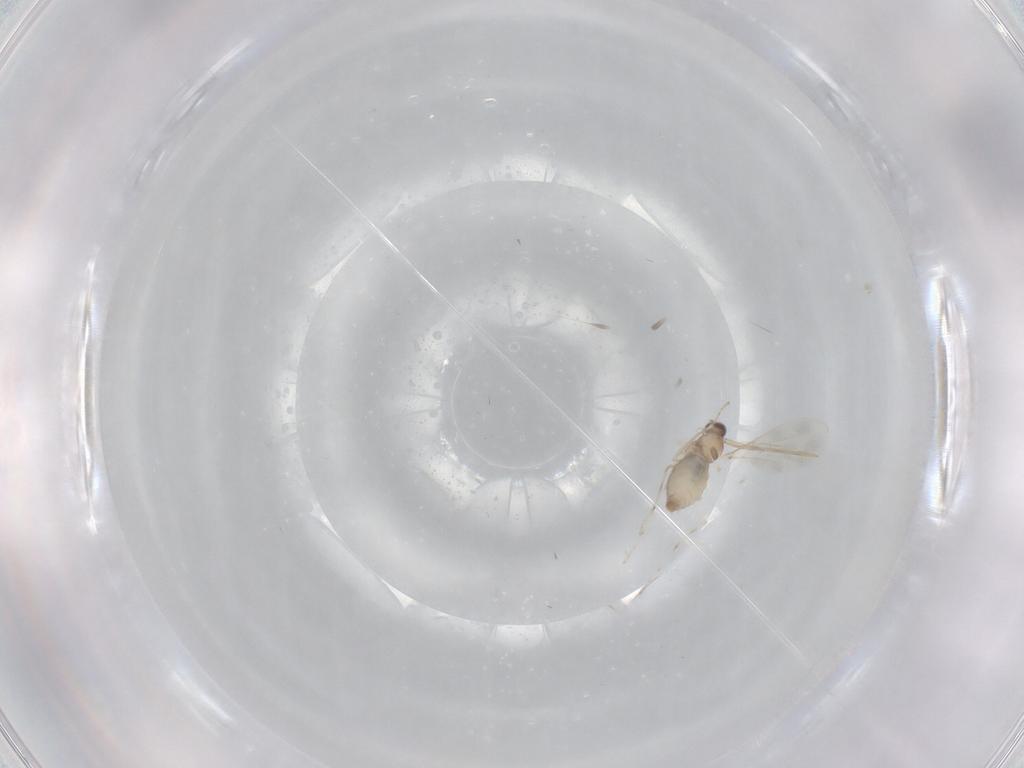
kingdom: Animalia
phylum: Arthropoda
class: Insecta
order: Diptera
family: Cecidomyiidae
